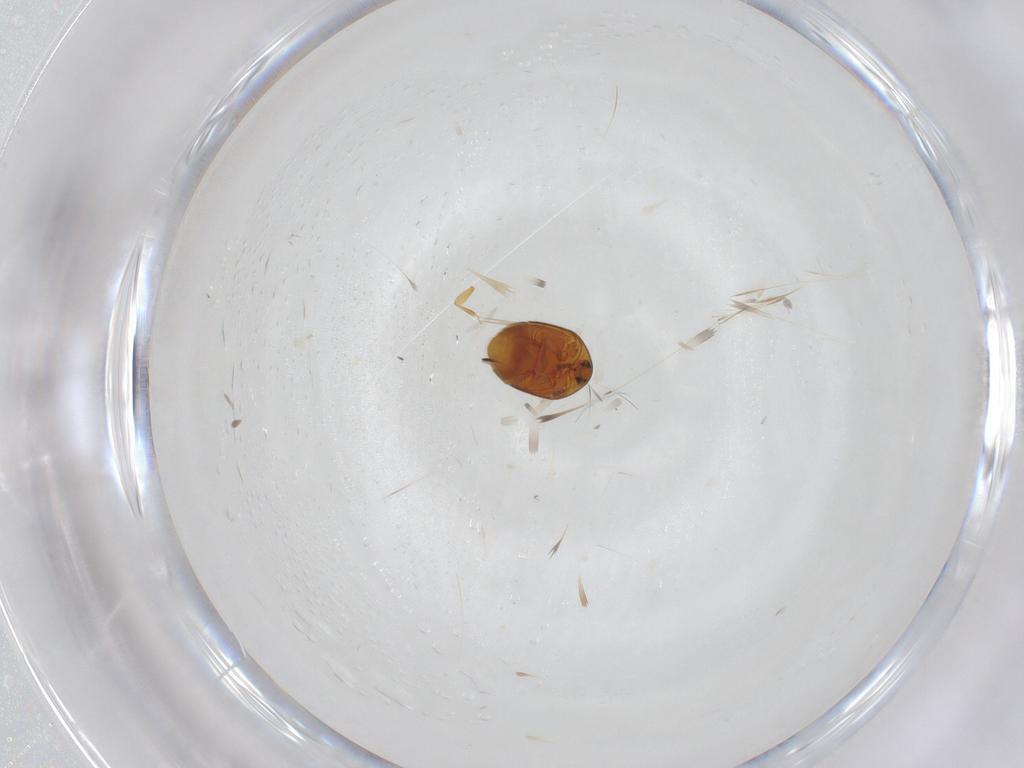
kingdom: Animalia
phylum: Arthropoda
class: Insecta
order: Coleoptera
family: Corylophidae
